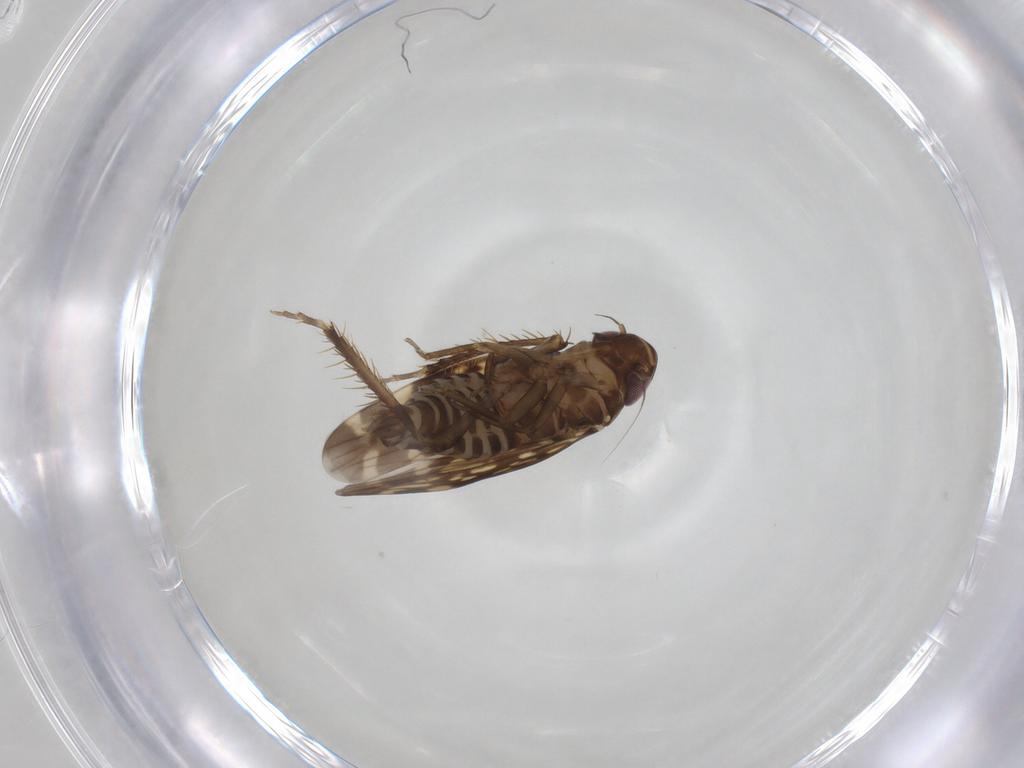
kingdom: Animalia
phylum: Arthropoda
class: Insecta
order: Hemiptera
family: Cicadellidae
